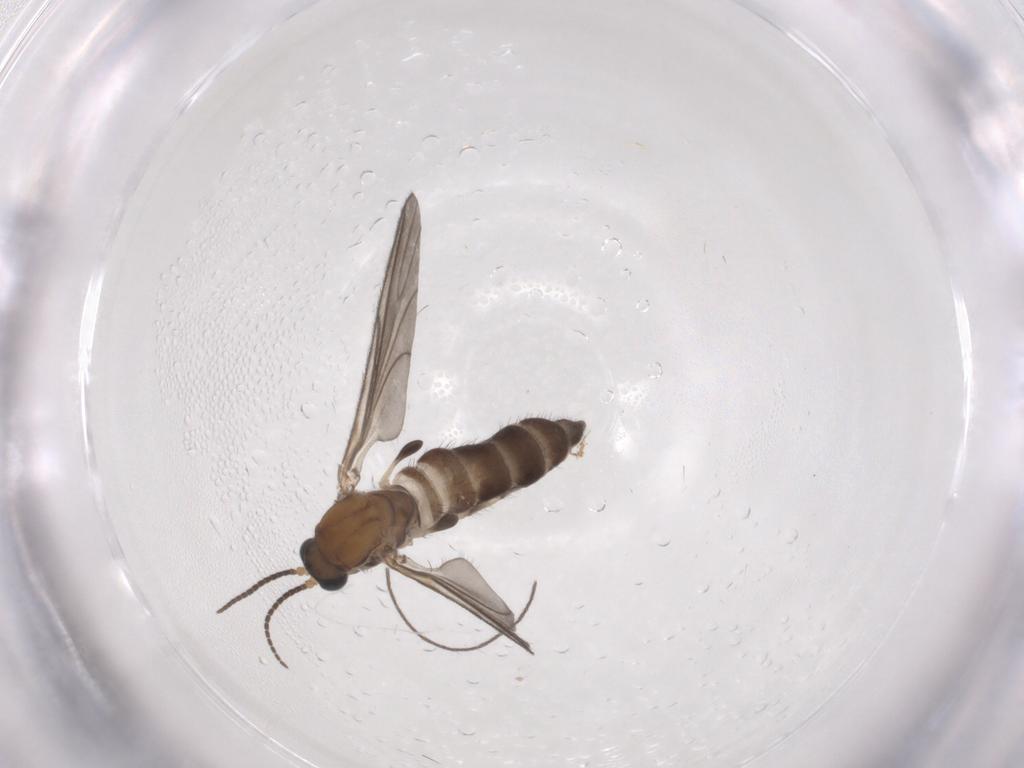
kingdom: Animalia
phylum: Arthropoda
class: Insecta
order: Diptera
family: Sciaridae
